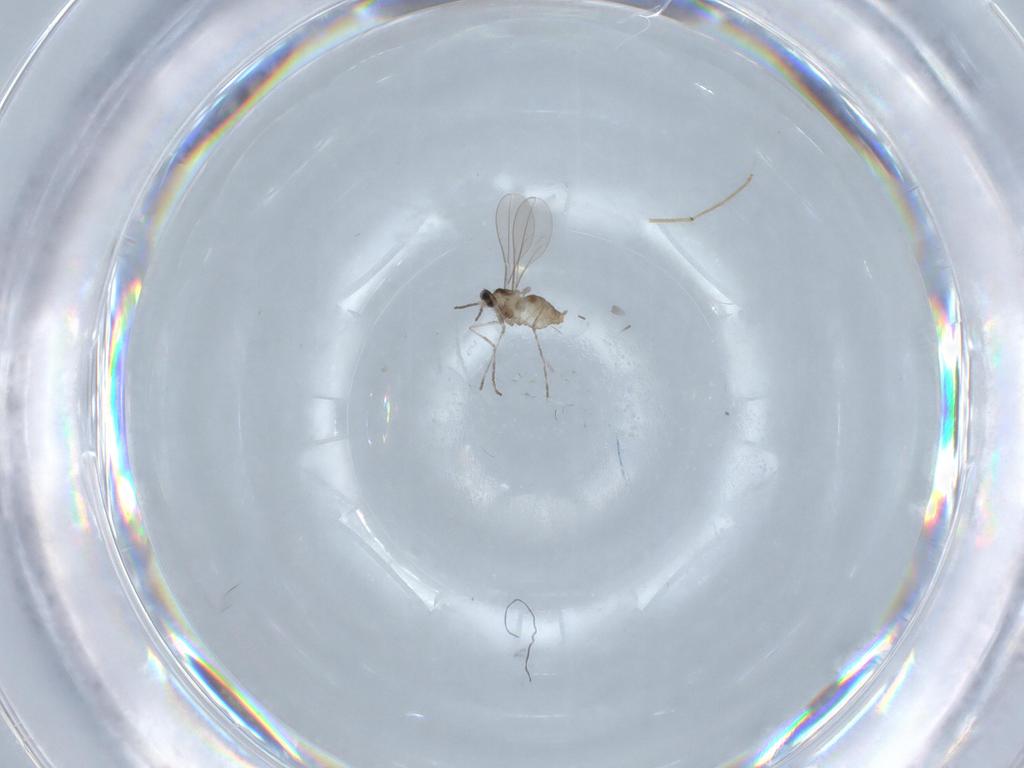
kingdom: Animalia
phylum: Arthropoda
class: Insecta
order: Diptera
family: Cecidomyiidae
